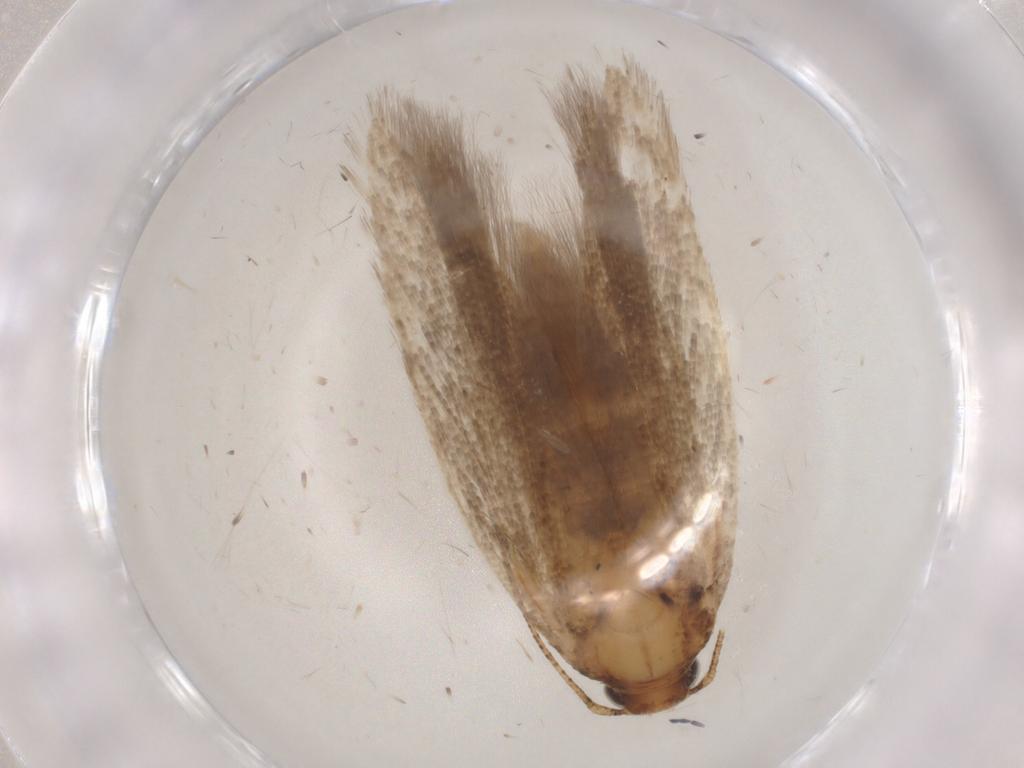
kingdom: Animalia
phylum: Arthropoda
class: Insecta
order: Lepidoptera
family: Gelechiidae
